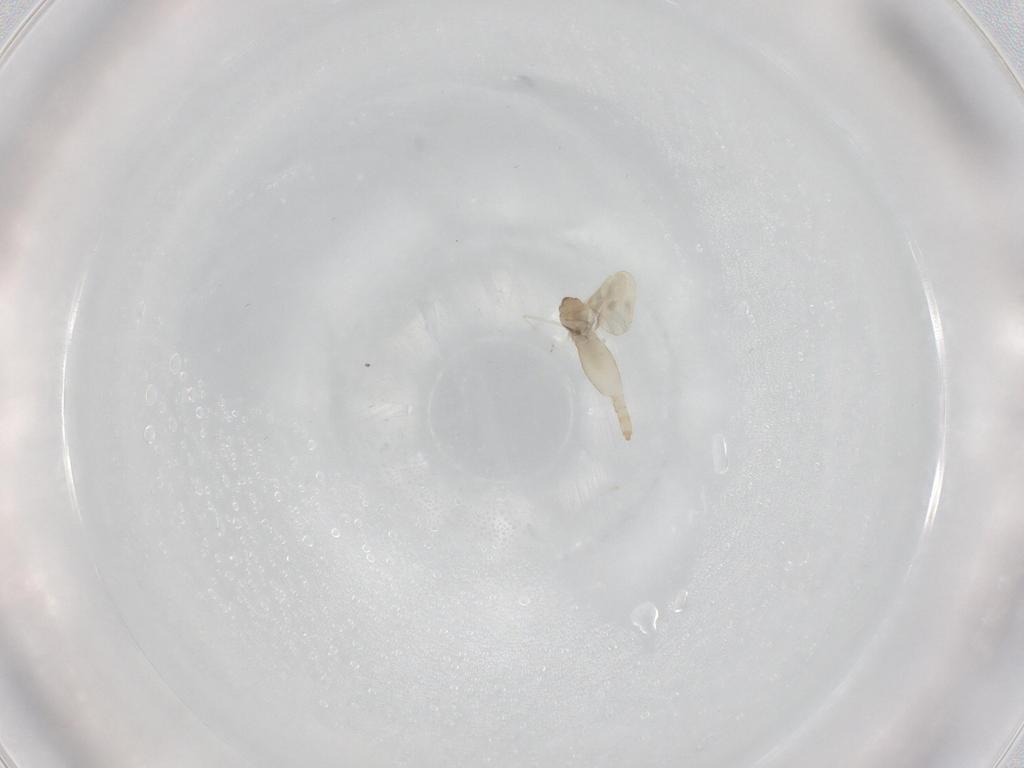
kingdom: Animalia
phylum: Arthropoda
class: Insecta
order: Diptera
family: Cecidomyiidae
